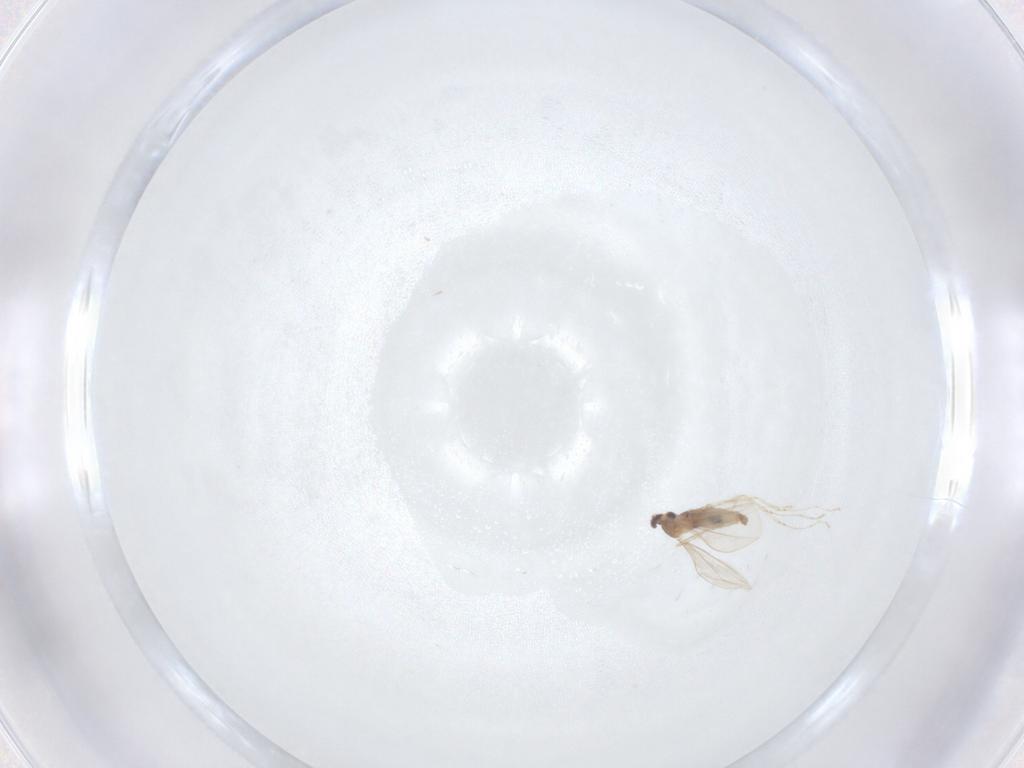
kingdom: Animalia
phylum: Arthropoda
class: Insecta
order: Diptera
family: Cecidomyiidae
